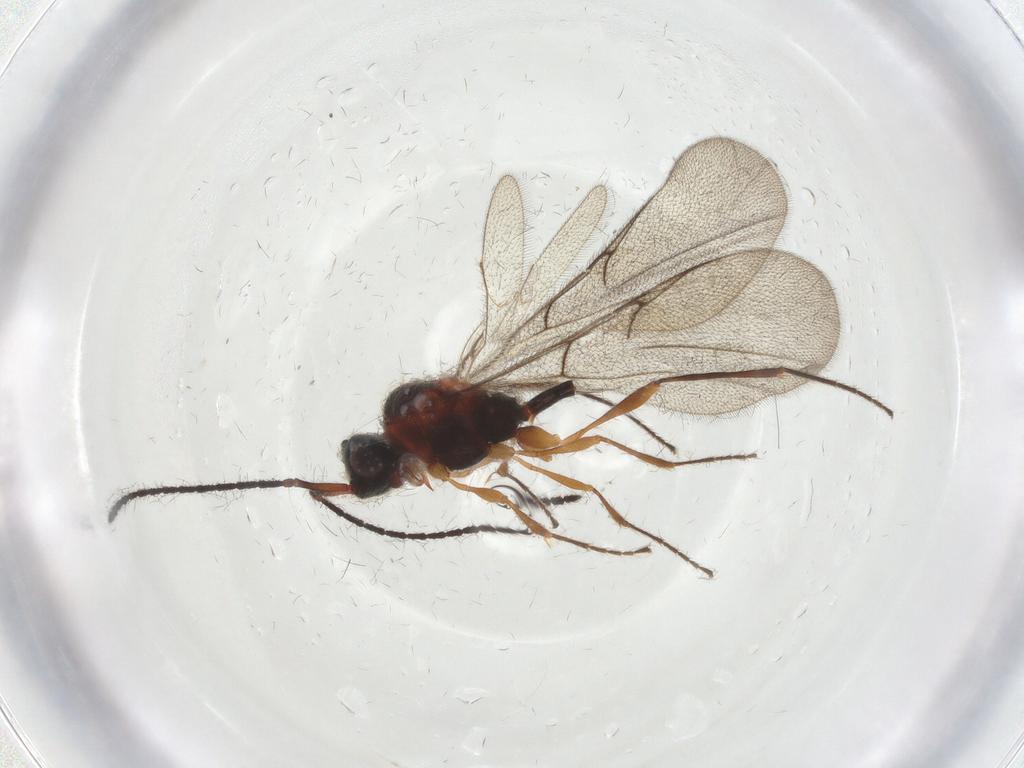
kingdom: Animalia
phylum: Arthropoda
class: Insecta
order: Hymenoptera
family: Diapriidae
